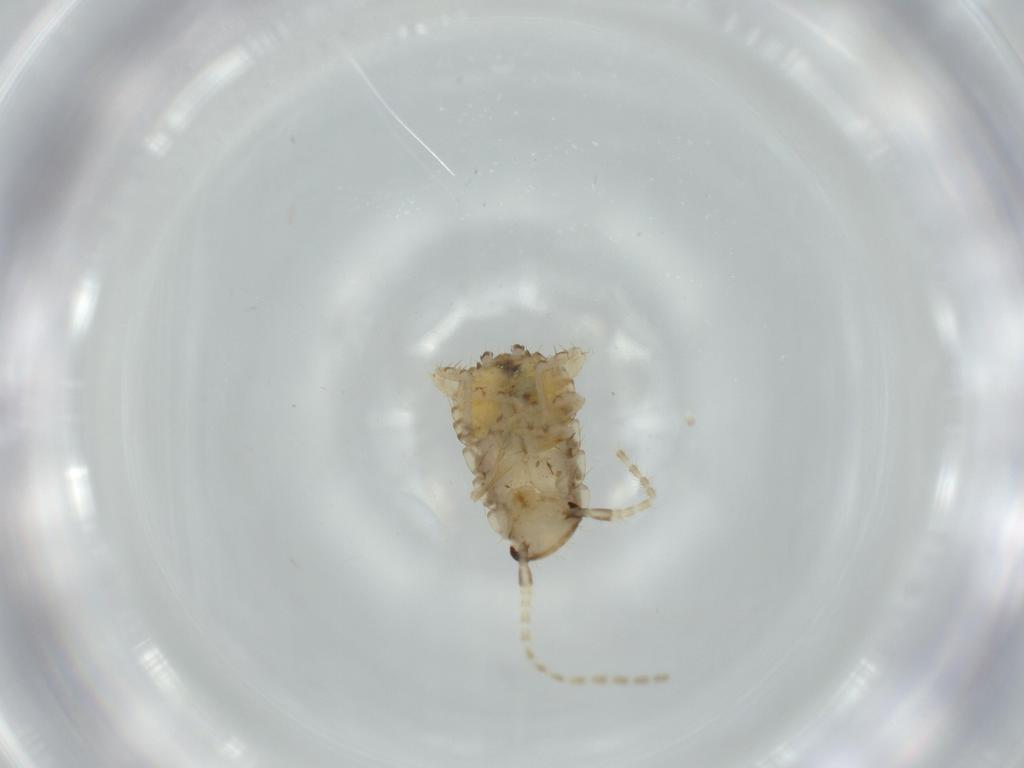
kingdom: Animalia
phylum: Arthropoda
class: Insecta
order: Blattodea
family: Ectobiidae
